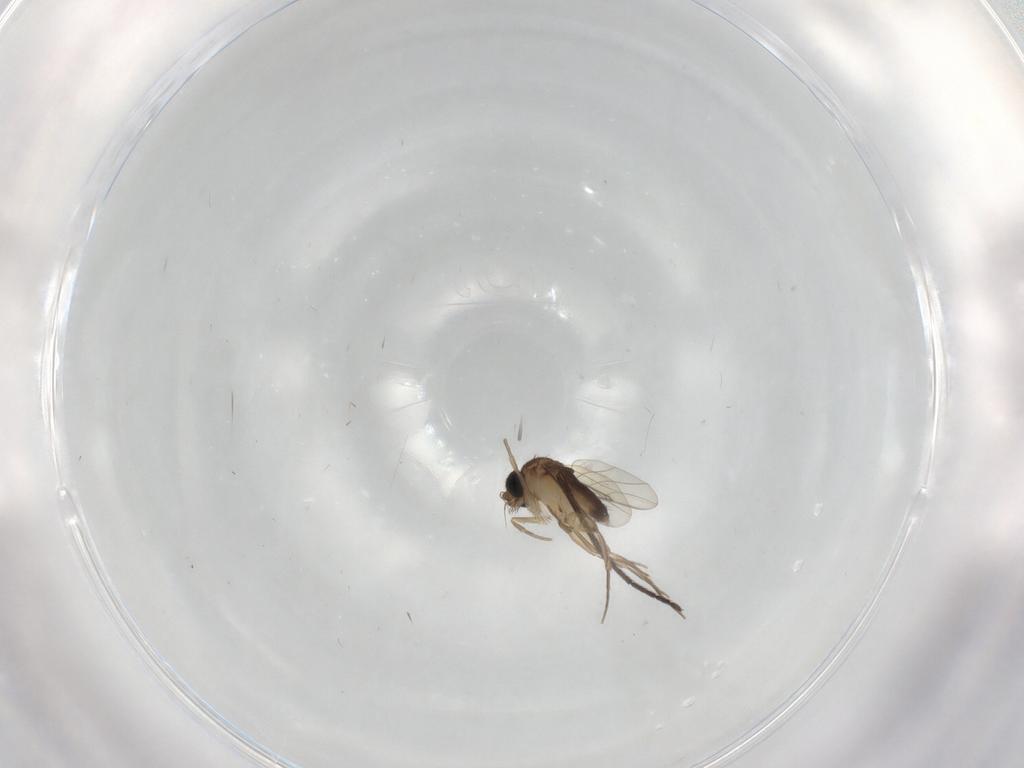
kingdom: Animalia
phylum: Arthropoda
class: Insecta
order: Diptera
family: Phoridae
